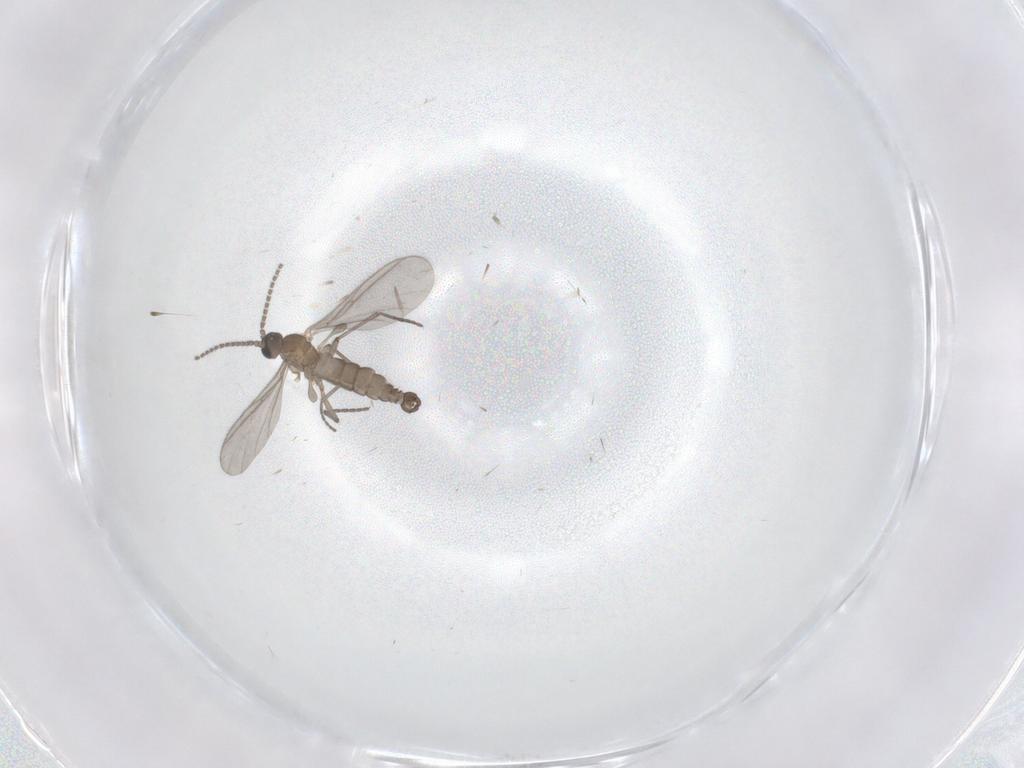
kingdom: Animalia
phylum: Arthropoda
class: Insecta
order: Diptera
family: Sciaridae
